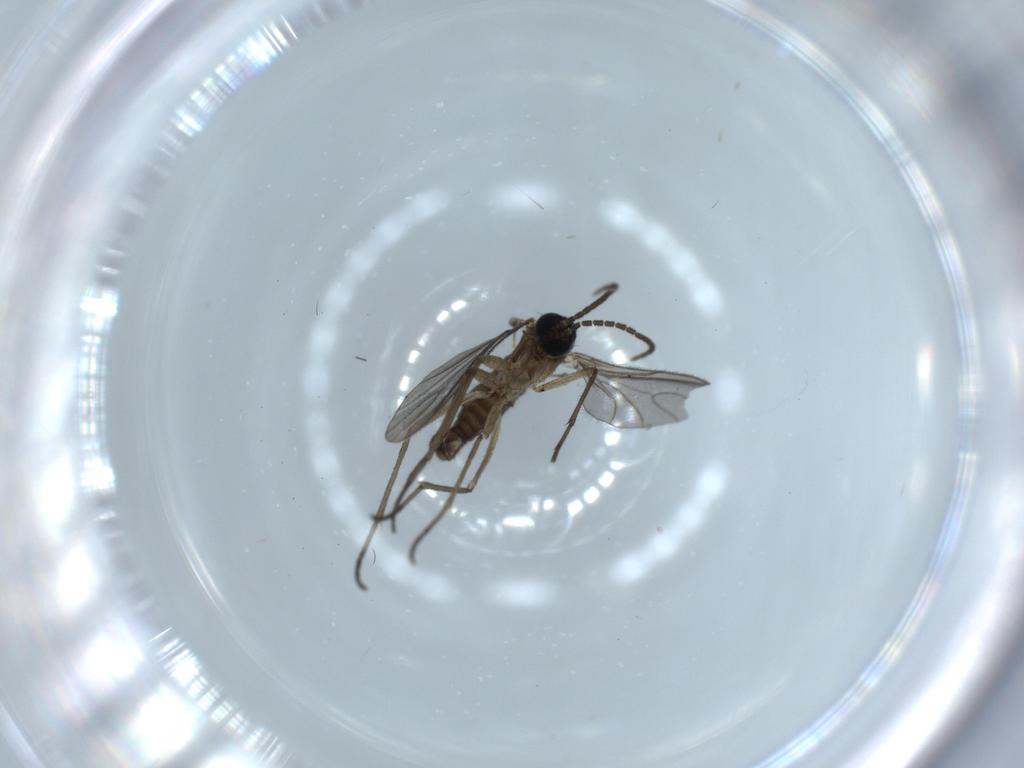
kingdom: Animalia
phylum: Arthropoda
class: Insecta
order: Diptera
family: Sciaridae
